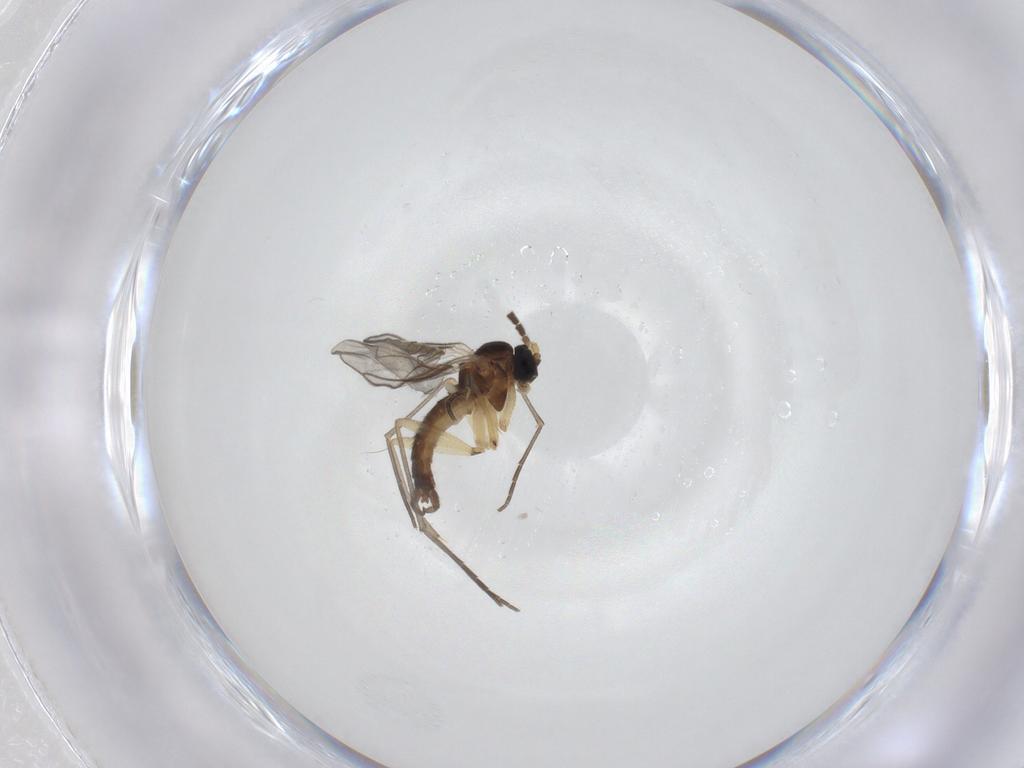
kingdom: Animalia
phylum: Arthropoda
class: Insecta
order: Diptera
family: Sciaridae
